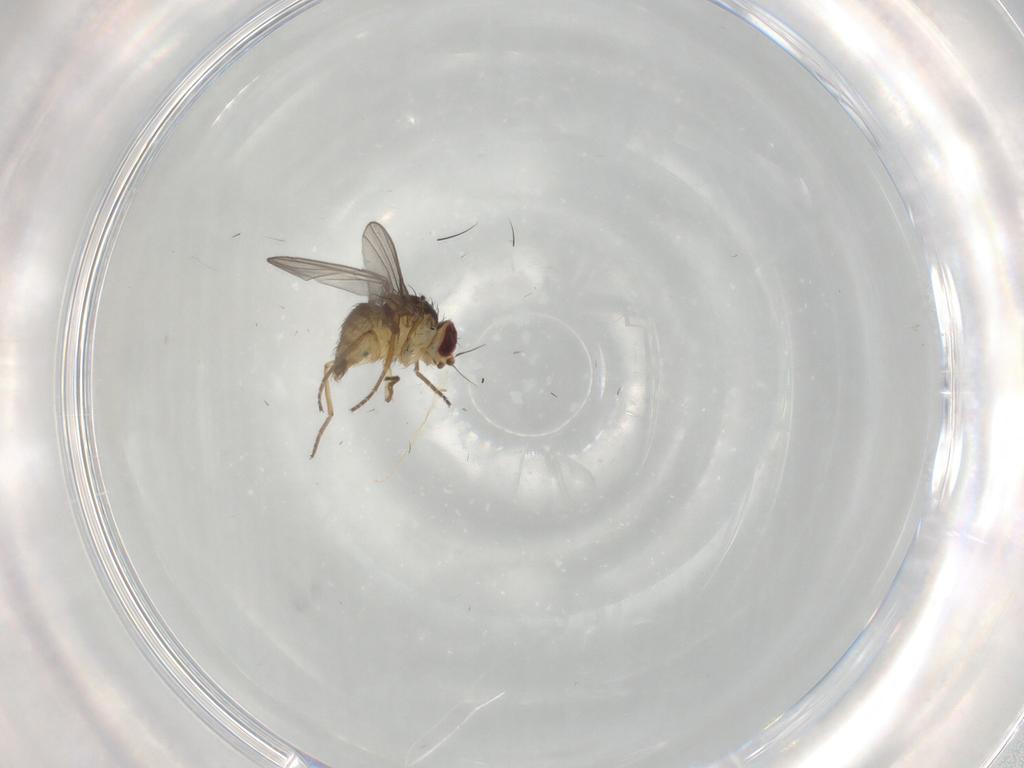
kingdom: Animalia
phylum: Arthropoda
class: Insecta
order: Diptera
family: Agromyzidae
